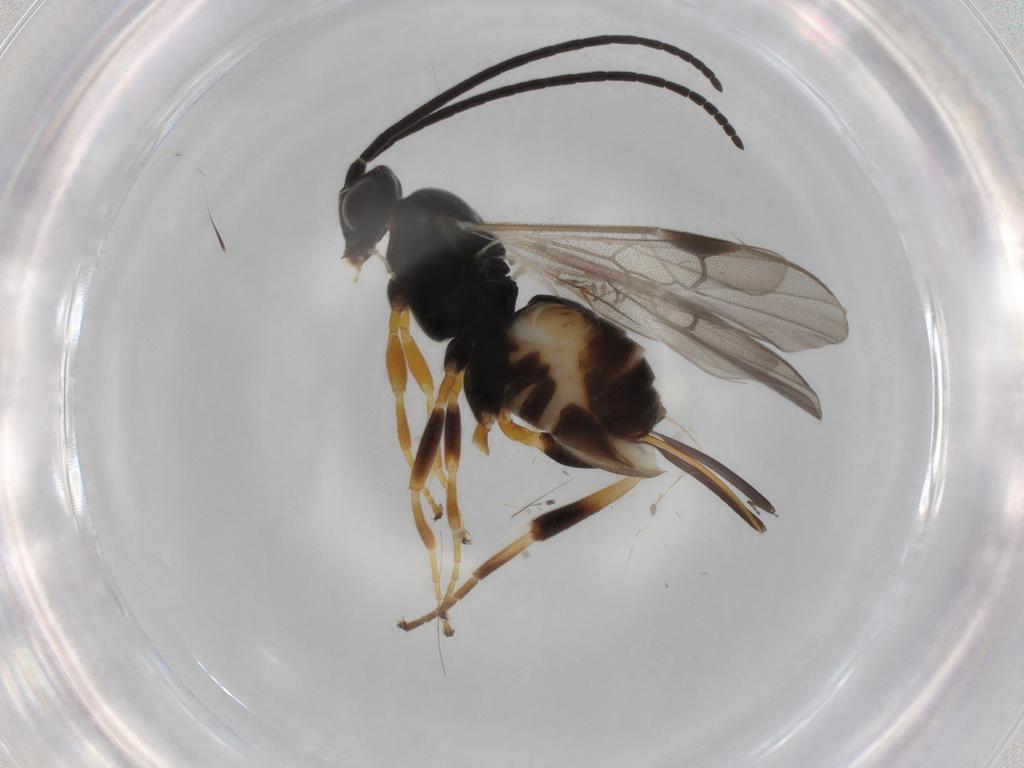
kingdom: Animalia
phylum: Arthropoda
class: Insecta
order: Hymenoptera
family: Braconidae
